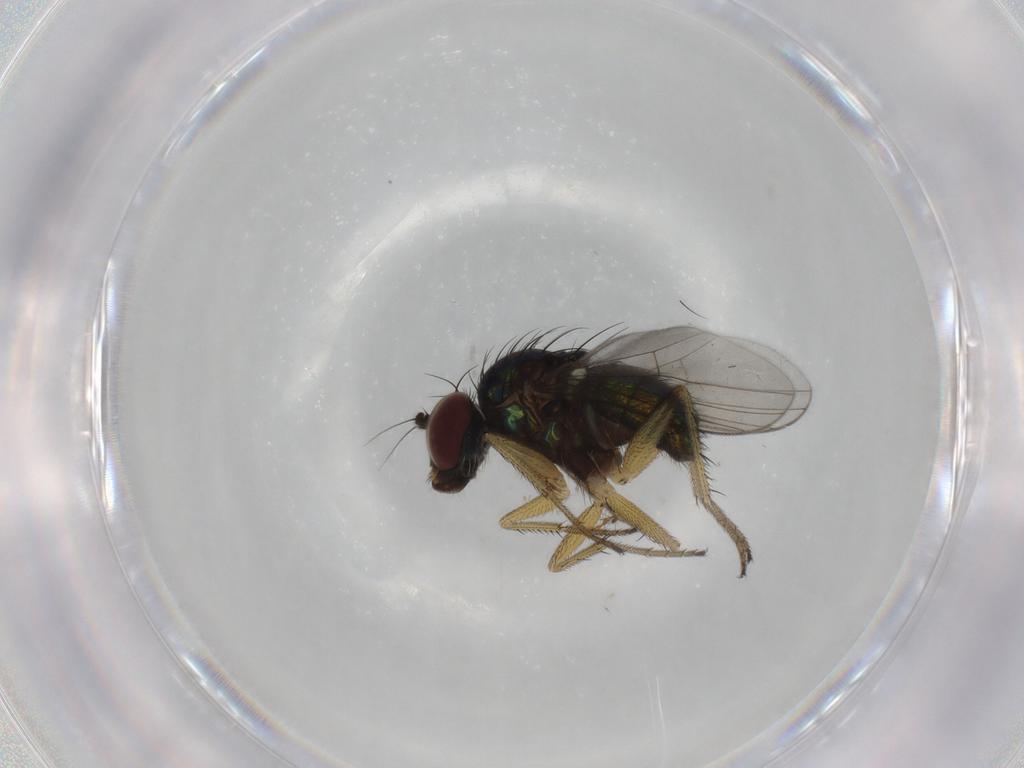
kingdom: Animalia
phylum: Arthropoda
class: Insecta
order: Diptera
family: Dolichopodidae
